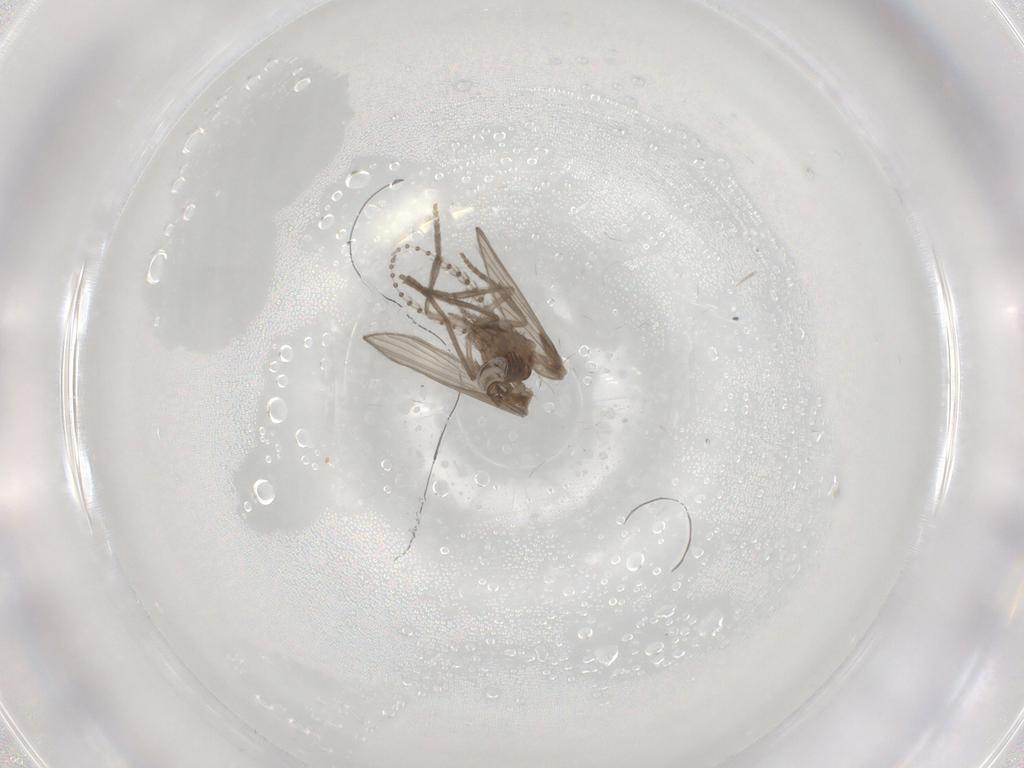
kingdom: Animalia
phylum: Arthropoda
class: Insecta
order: Diptera
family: Psychodidae
